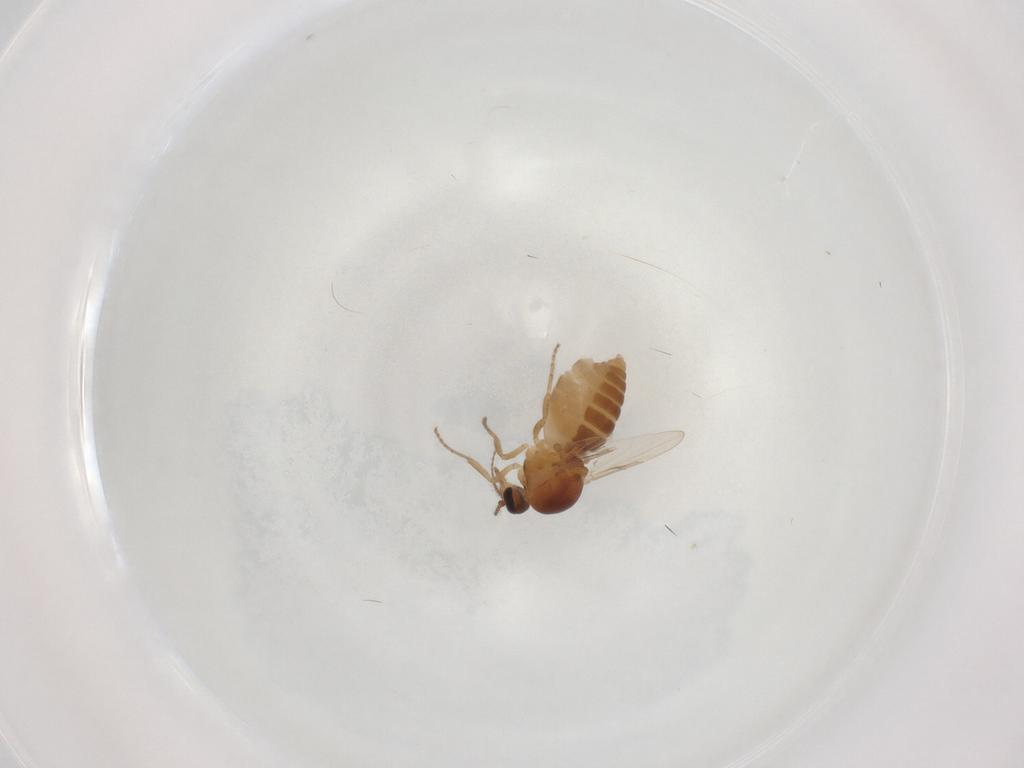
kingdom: Animalia
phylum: Arthropoda
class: Insecta
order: Diptera
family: Ceratopogonidae
